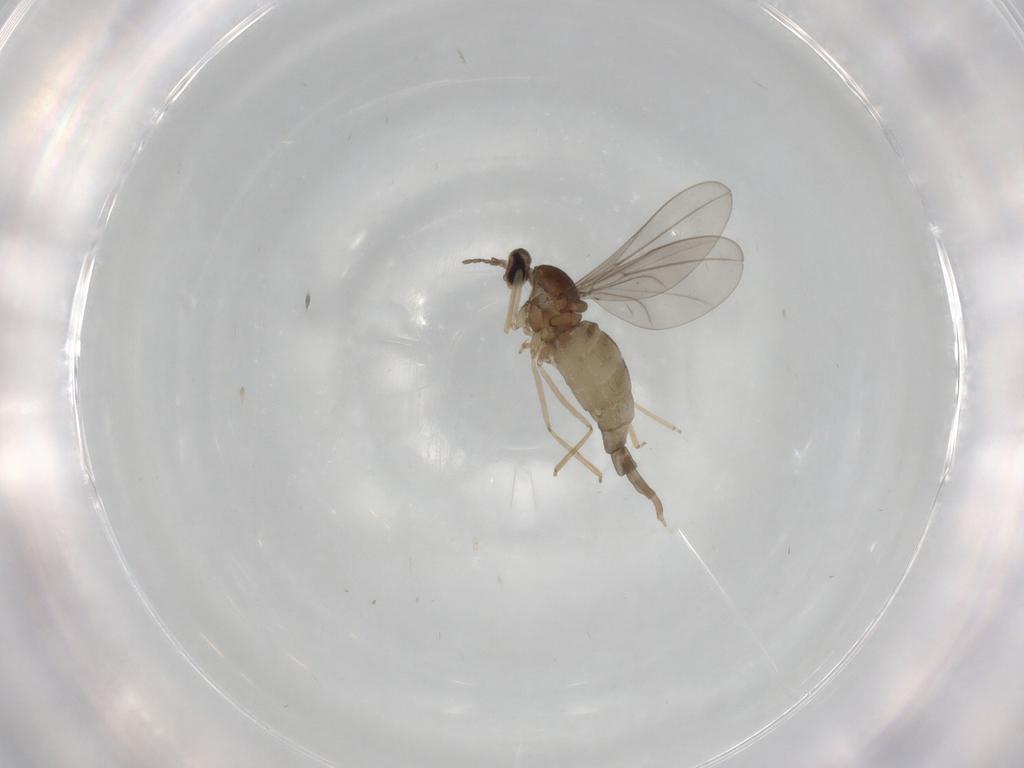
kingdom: Animalia
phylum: Arthropoda
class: Insecta
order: Diptera
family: Cecidomyiidae
